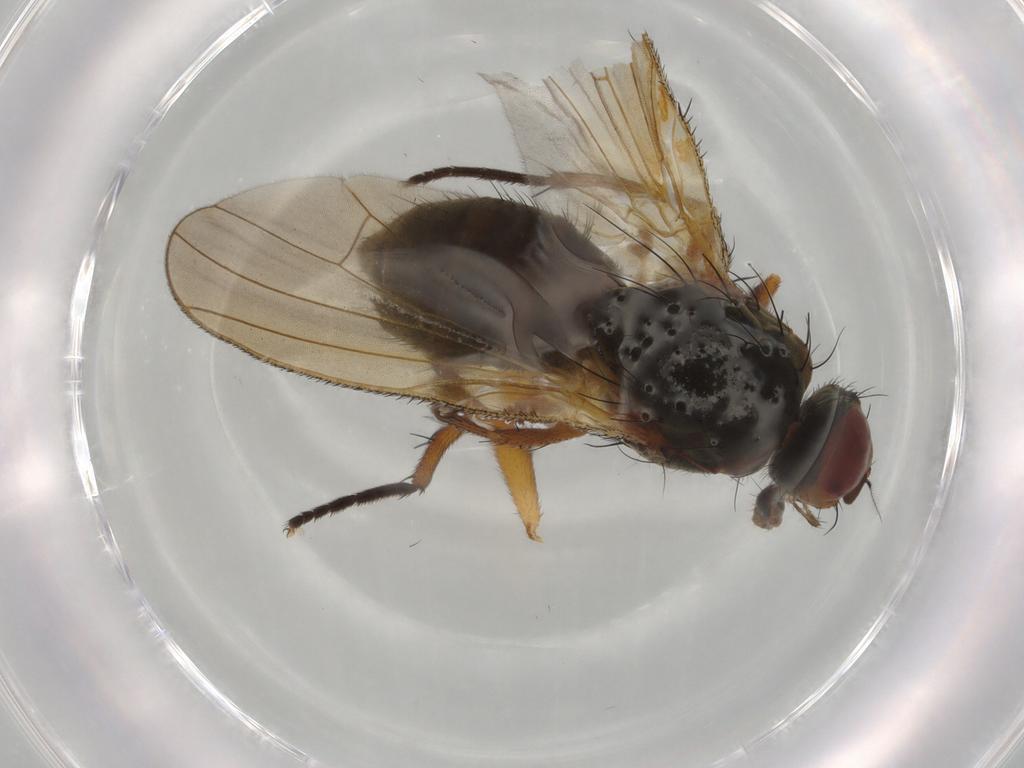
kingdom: Animalia
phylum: Arthropoda
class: Insecta
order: Diptera
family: Anthomyiidae
